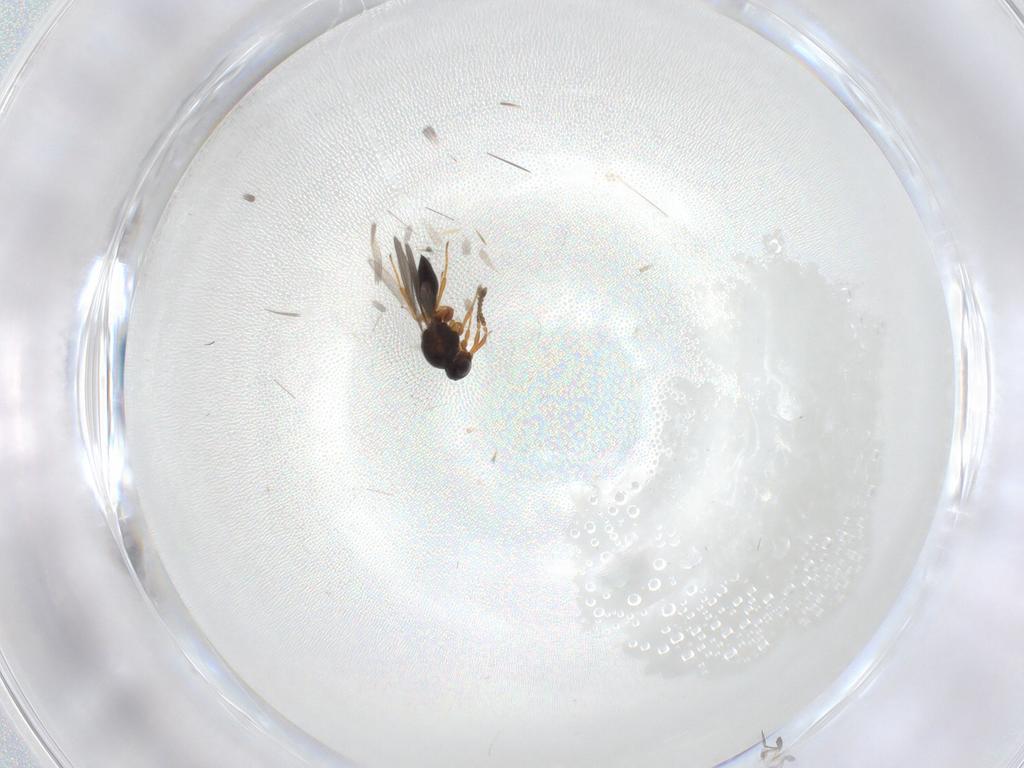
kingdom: Animalia
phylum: Arthropoda
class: Insecta
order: Hymenoptera
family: Platygastridae
